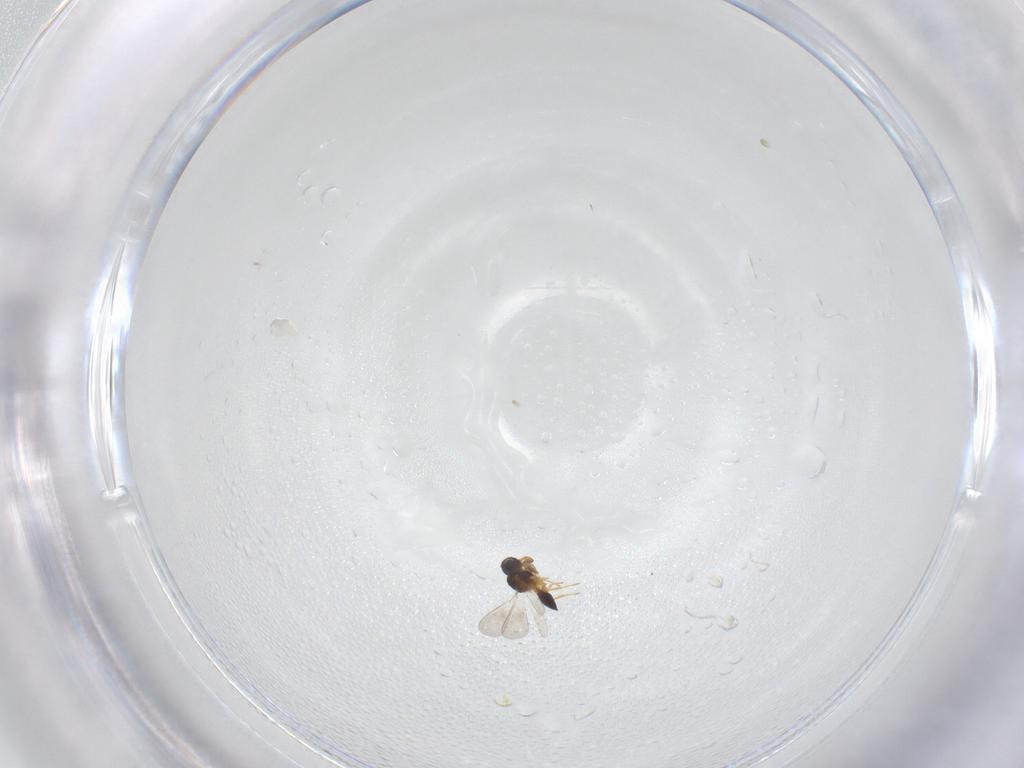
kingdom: Animalia
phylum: Arthropoda
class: Insecta
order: Hymenoptera
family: Platygastridae
